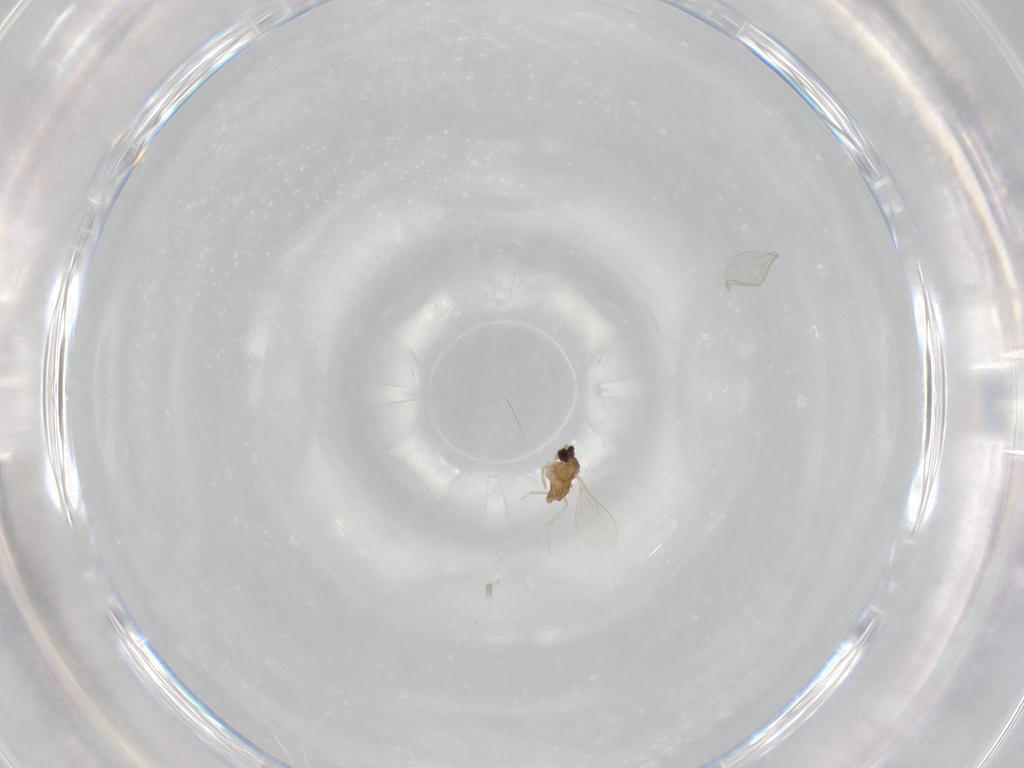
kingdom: Animalia
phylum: Arthropoda
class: Insecta
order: Diptera
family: Cecidomyiidae
